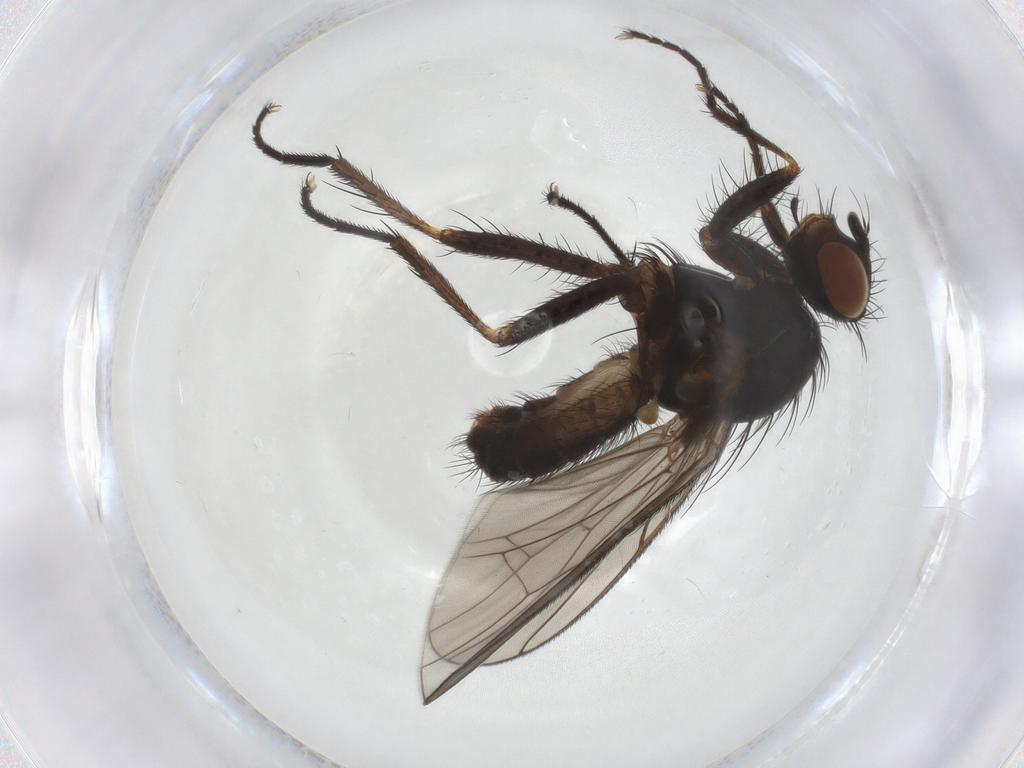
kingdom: Animalia
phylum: Arthropoda
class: Insecta
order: Diptera
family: Anthomyiidae
